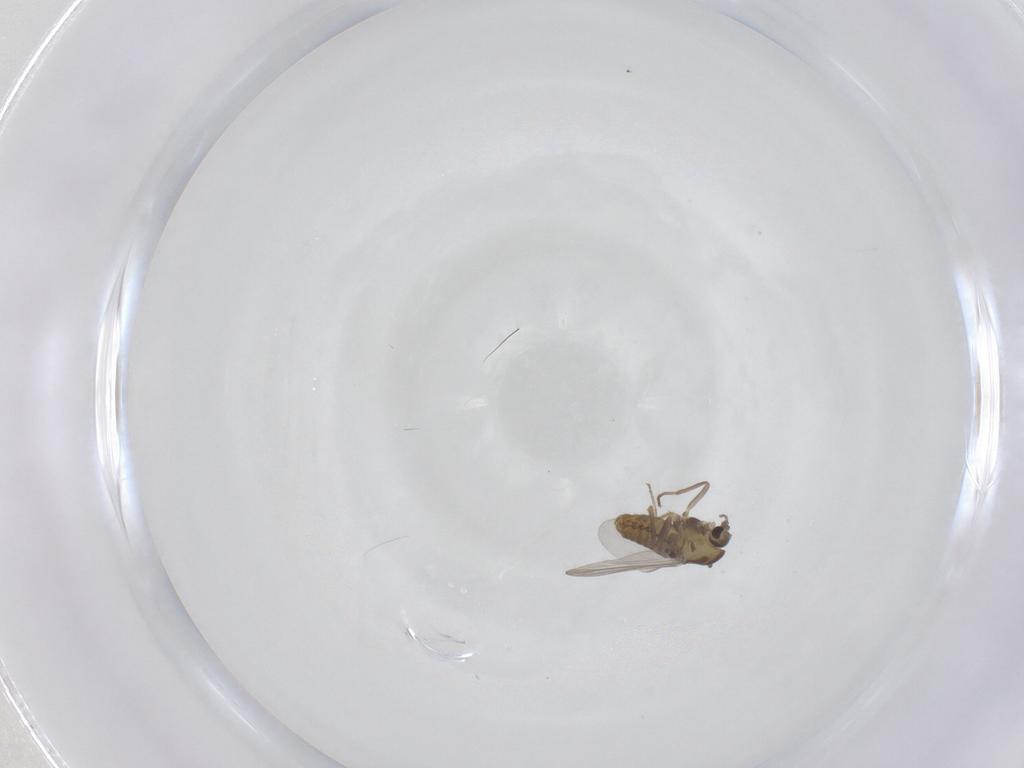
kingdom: Animalia
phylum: Arthropoda
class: Insecta
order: Diptera
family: Chironomidae
